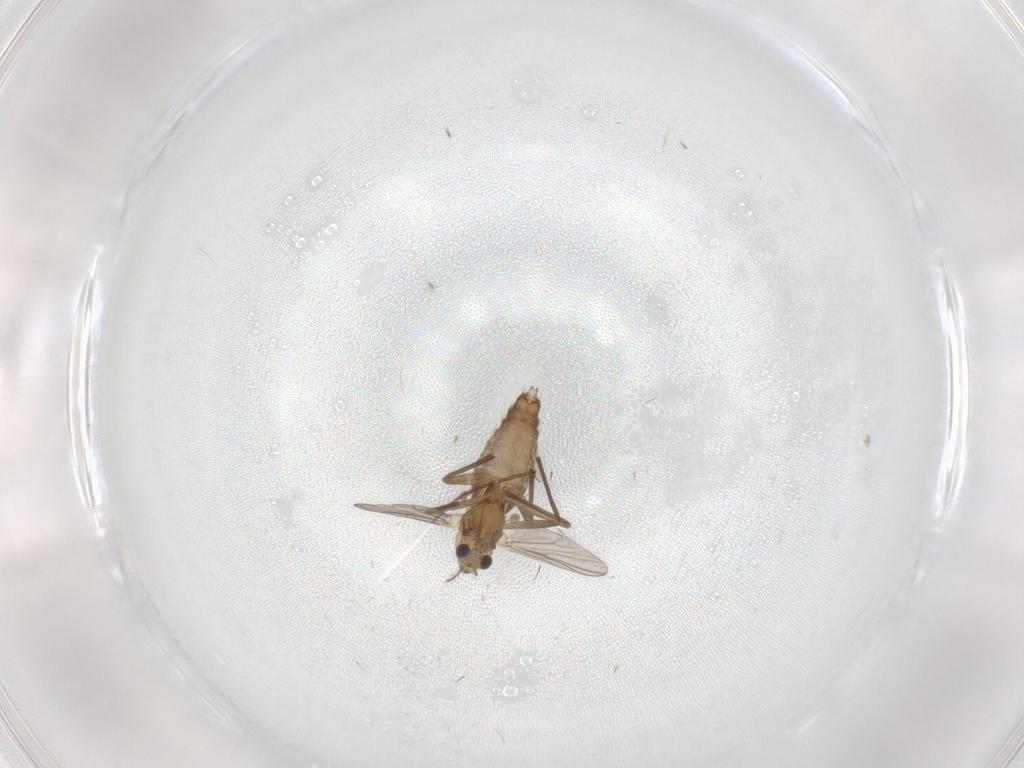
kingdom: Animalia
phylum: Arthropoda
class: Insecta
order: Diptera
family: Chironomidae
